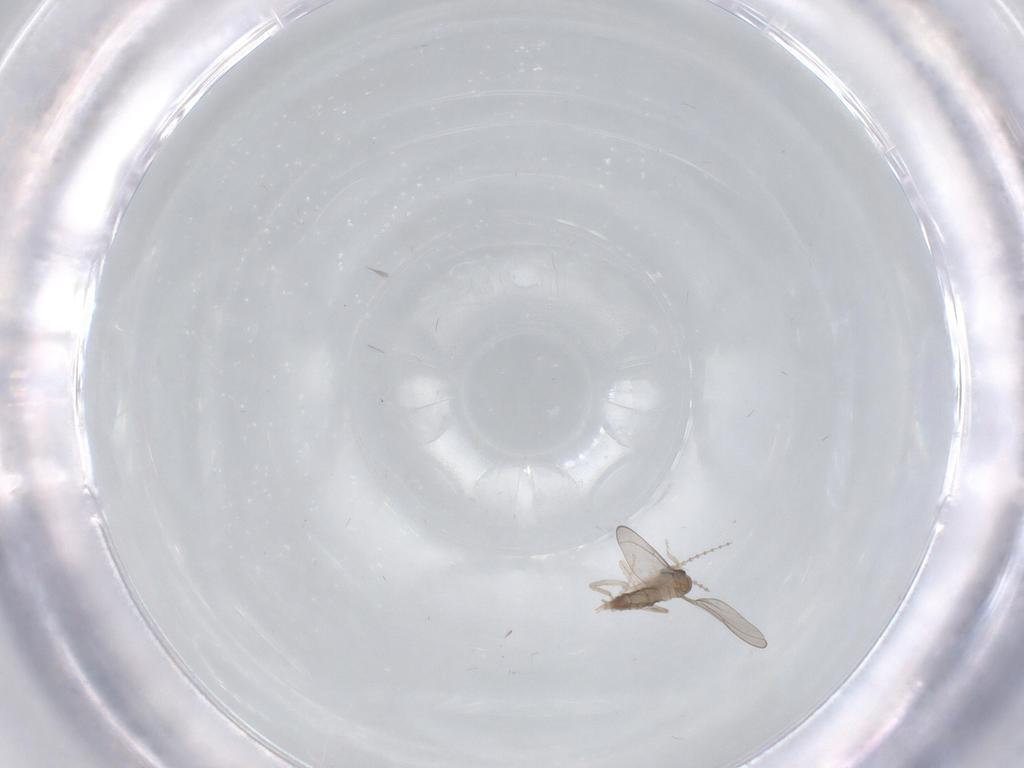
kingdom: Animalia
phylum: Arthropoda
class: Insecta
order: Diptera
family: Cecidomyiidae
